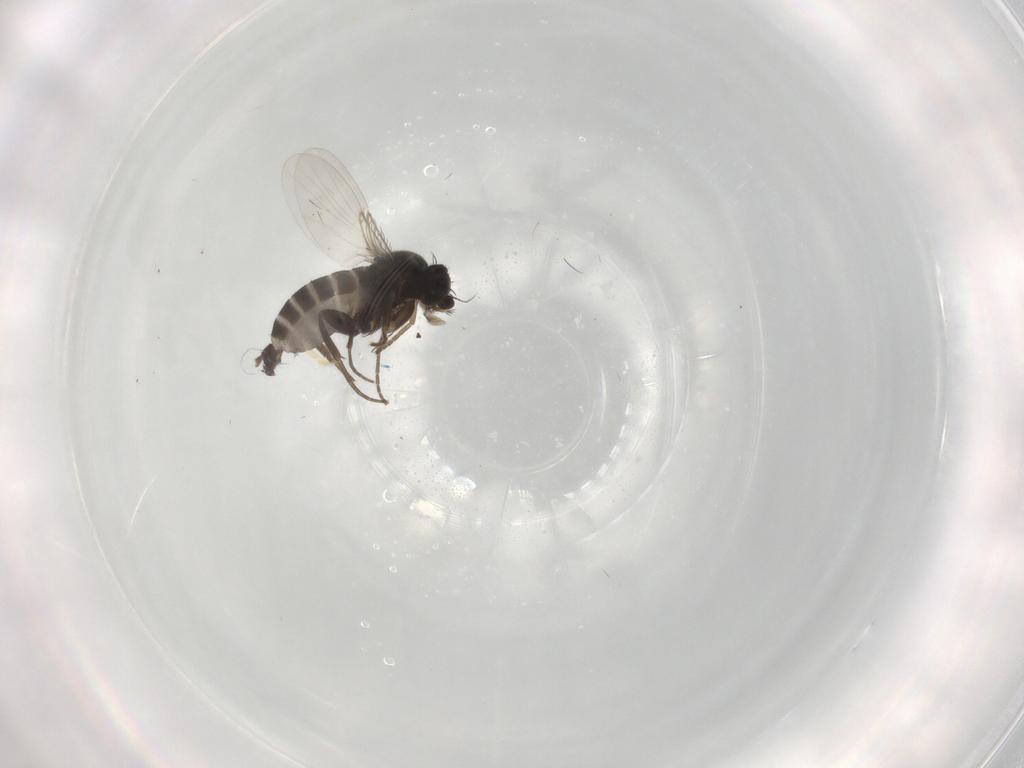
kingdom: Animalia
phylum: Arthropoda
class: Insecta
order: Diptera
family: Phoridae
